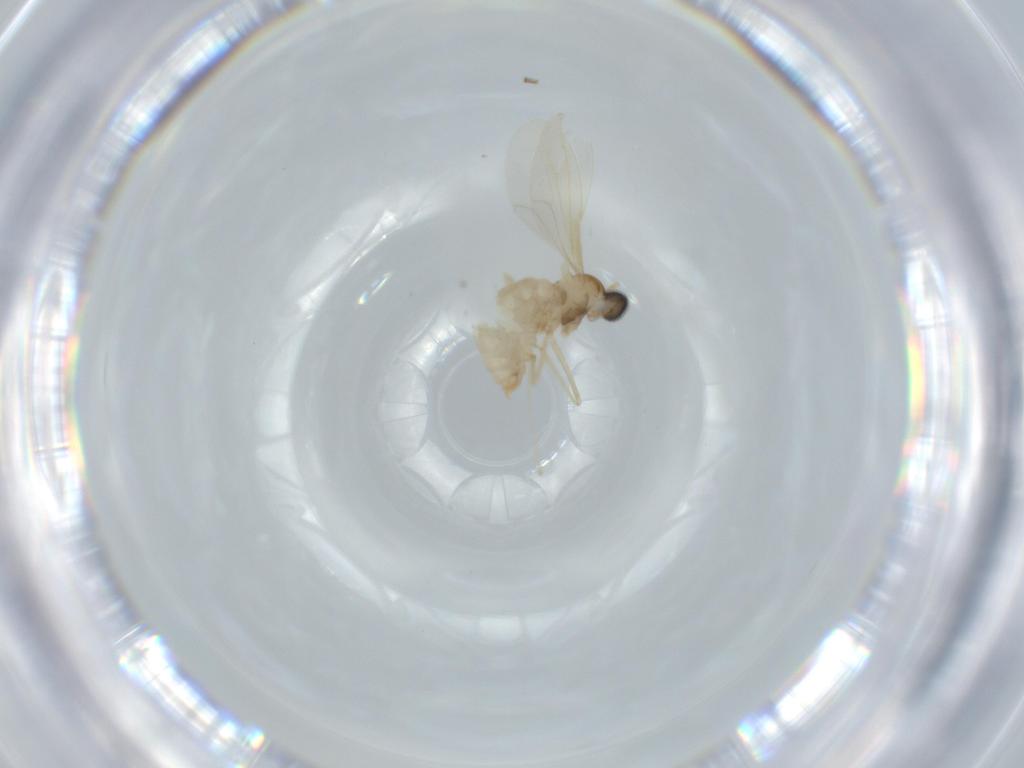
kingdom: Animalia
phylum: Arthropoda
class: Insecta
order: Diptera
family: Cecidomyiidae
